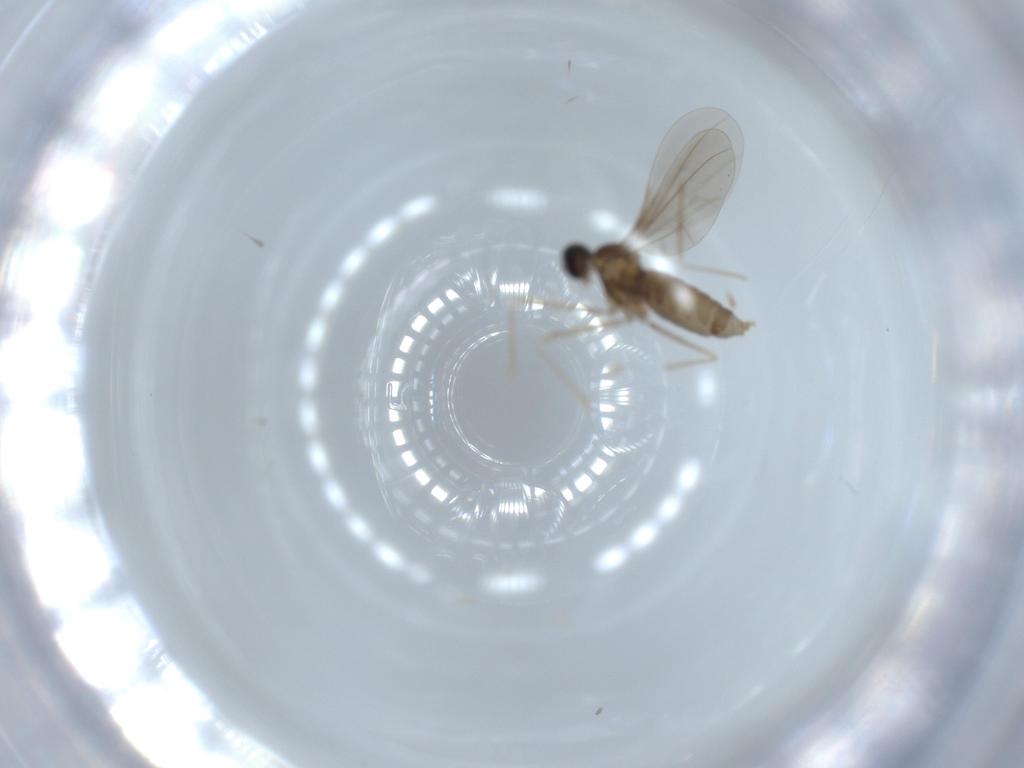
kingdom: Animalia
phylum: Arthropoda
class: Insecta
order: Diptera
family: Cecidomyiidae
